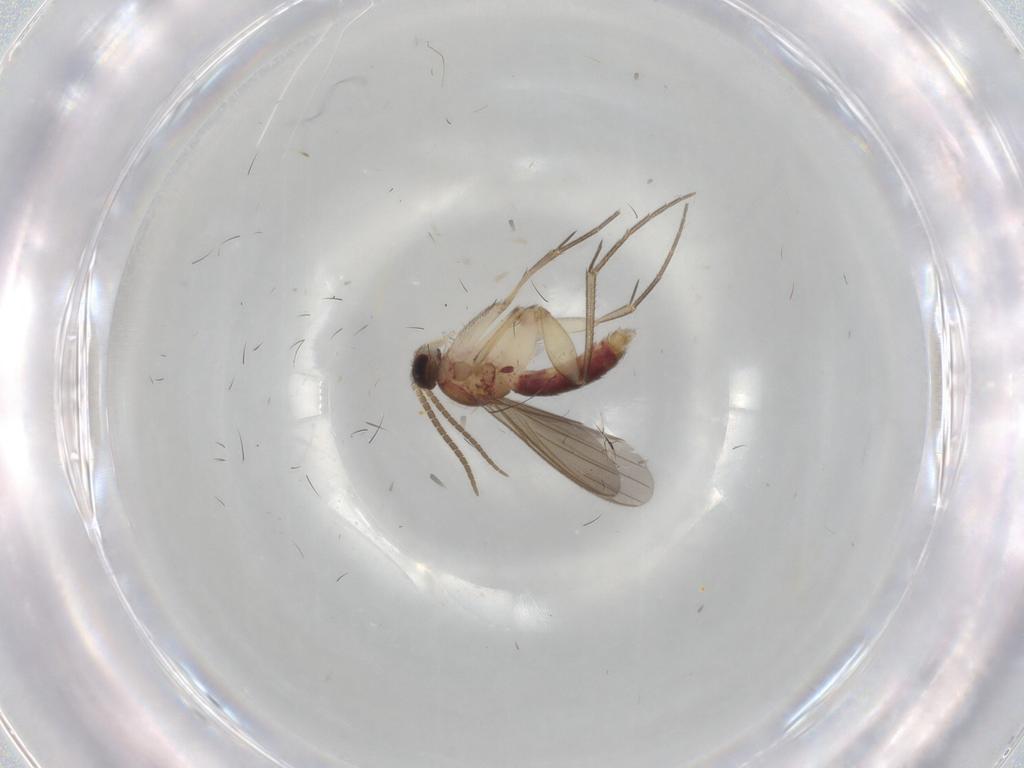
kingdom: Animalia
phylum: Arthropoda
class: Insecta
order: Diptera
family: Mycetophilidae
